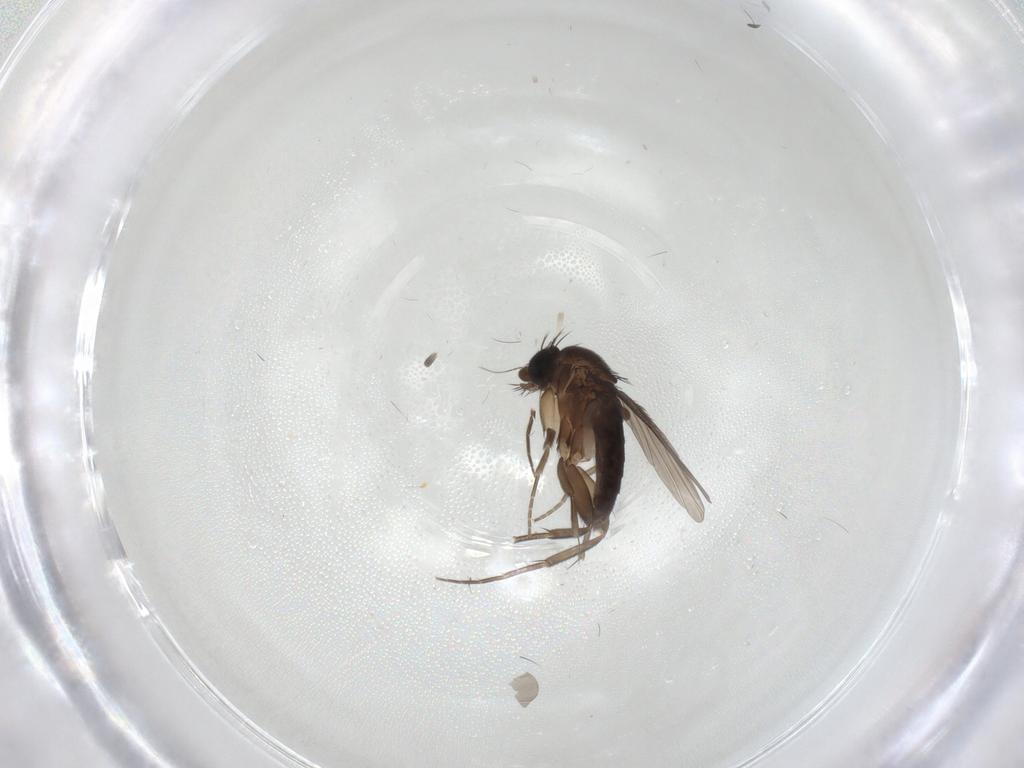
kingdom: Animalia
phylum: Arthropoda
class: Insecta
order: Diptera
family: Phoridae
